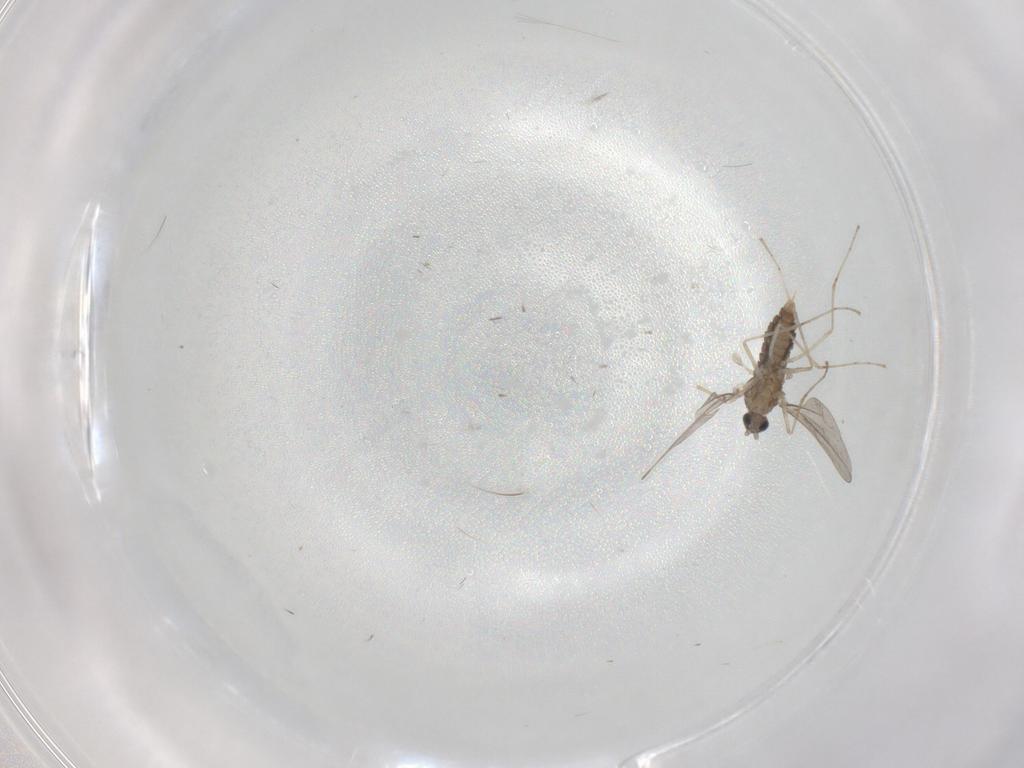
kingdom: Animalia
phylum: Arthropoda
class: Insecta
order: Diptera
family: Cecidomyiidae
